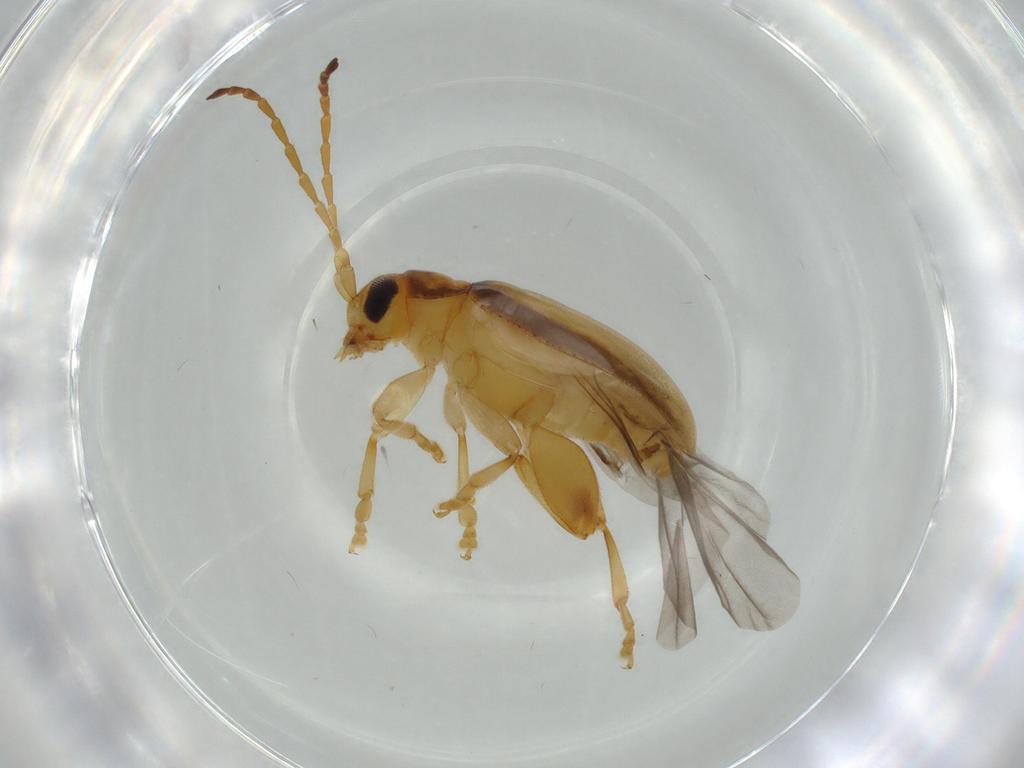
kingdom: Animalia
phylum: Arthropoda
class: Insecta
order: Coleoptera
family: Chrysomelidae
